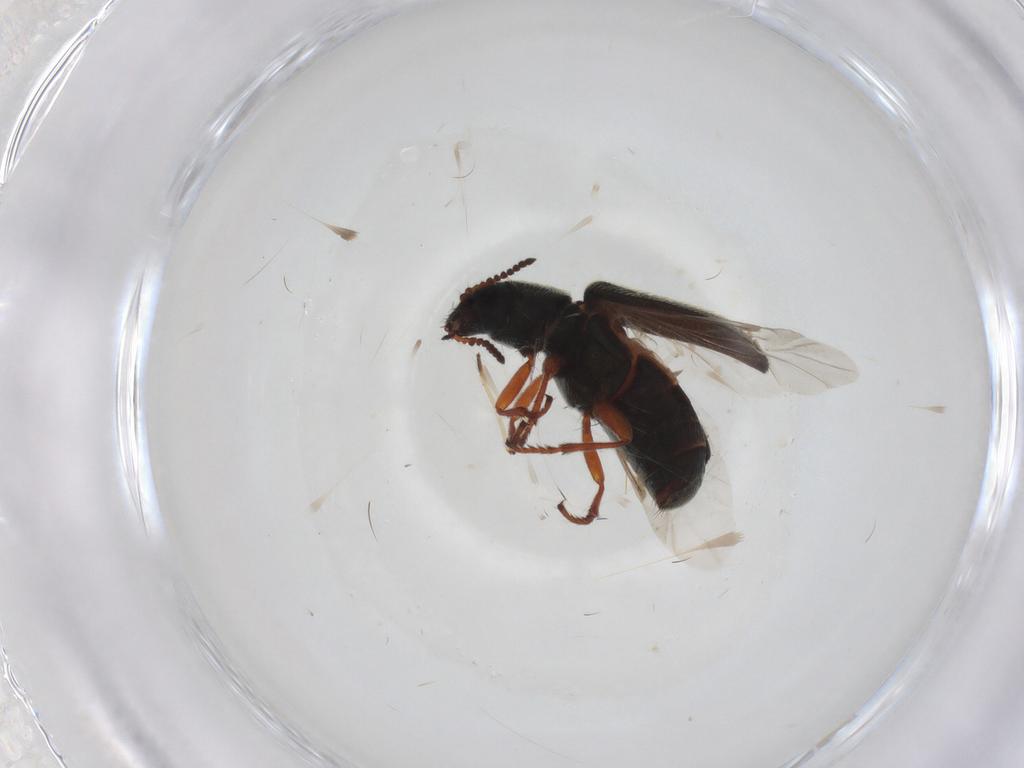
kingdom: Animalia
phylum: Arthropoda
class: Insecta
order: Coleoptera
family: Melyridae
